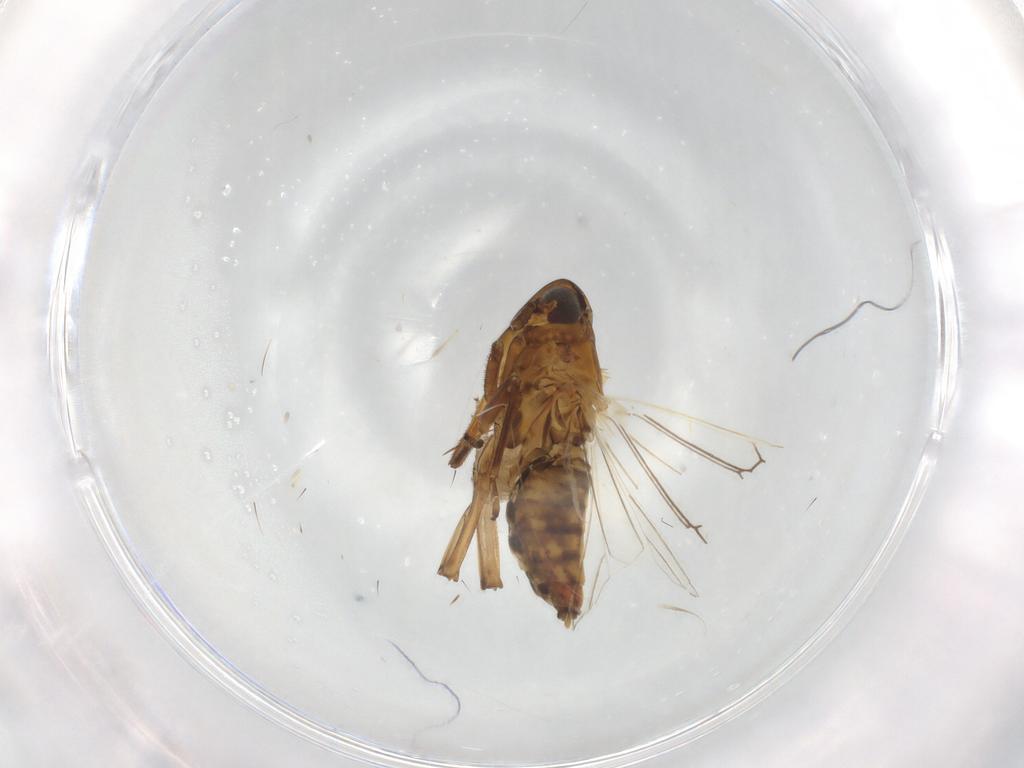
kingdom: Animalia
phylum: Arthropoda
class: Insecta
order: Hemiptera
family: Delphacidae
